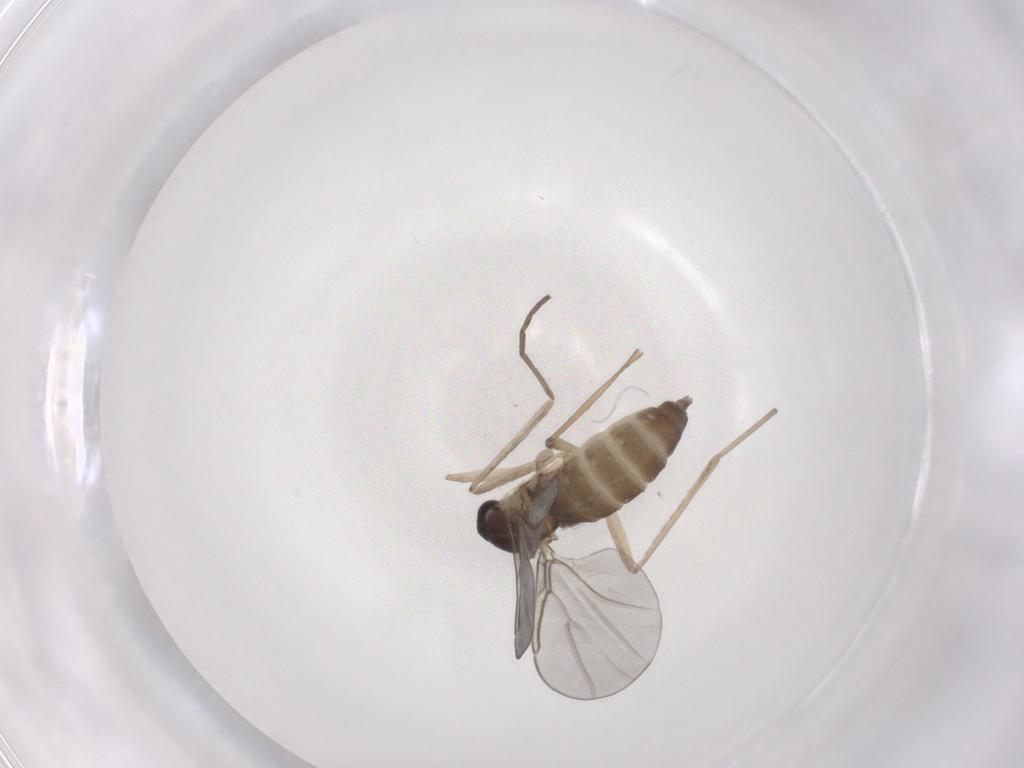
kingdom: Animalia
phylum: Arthropoda
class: Insecta
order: Diptera
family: Cecidomyiidae
